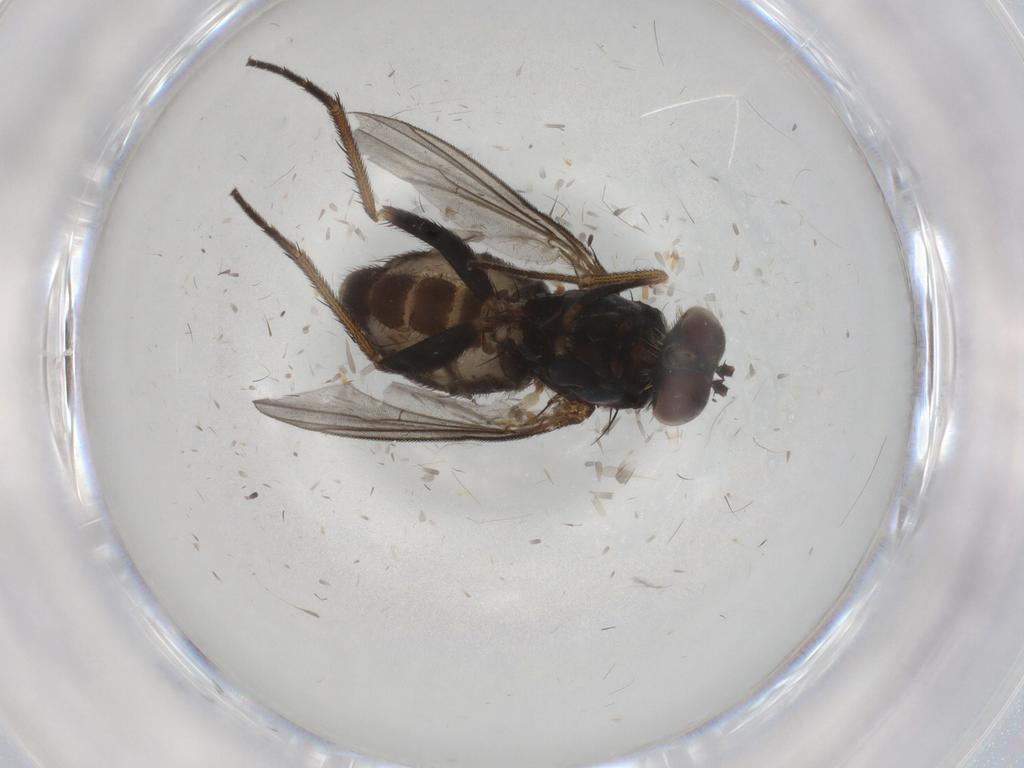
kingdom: Animalia
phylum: Arthropoda
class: Insecta
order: Diptera
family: Dolichopodidae
